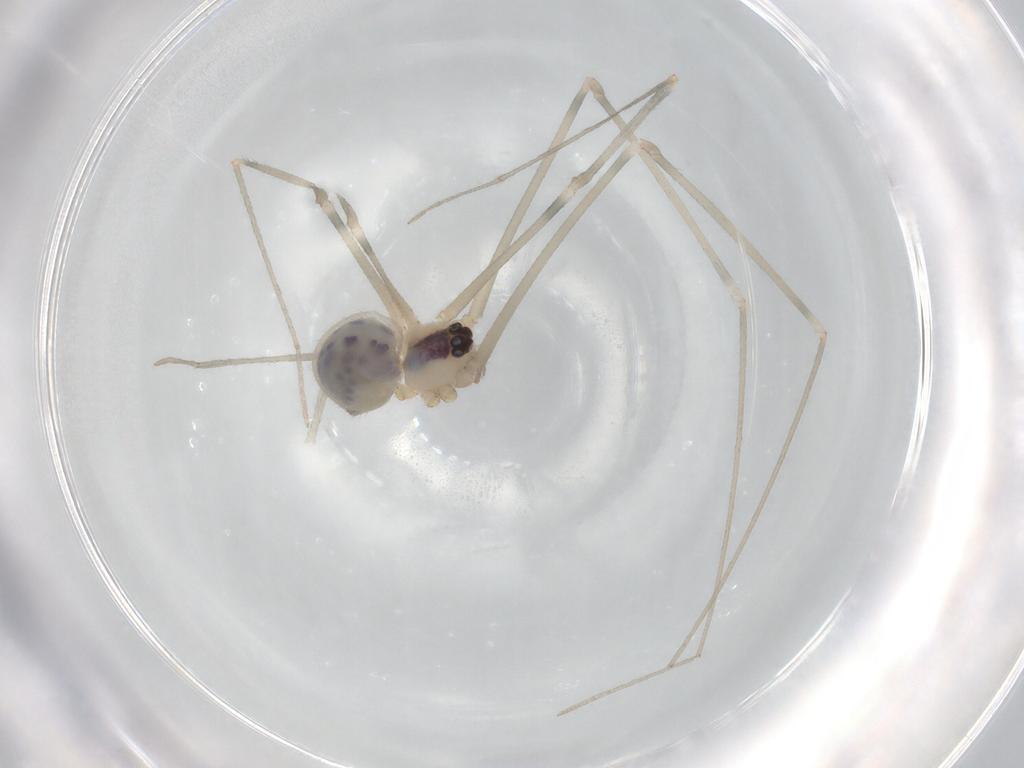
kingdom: Animalia
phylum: Arthropoda
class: Arachnida
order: Araneae
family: Pholcidae
